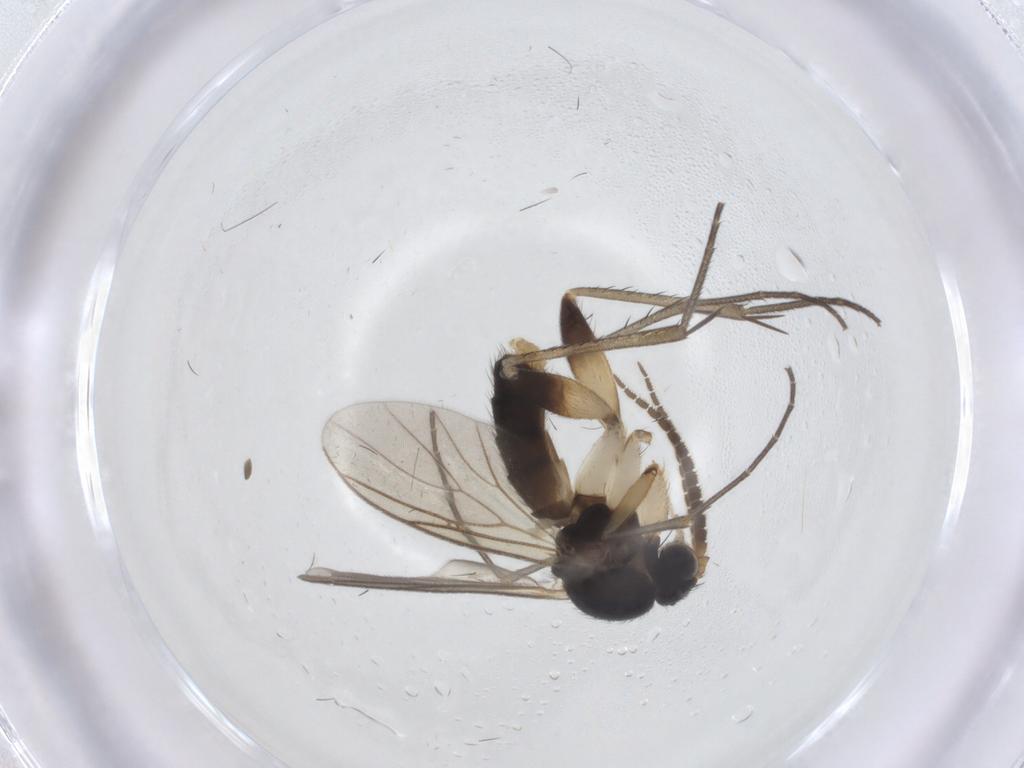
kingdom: Animalia
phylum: Arthropoda
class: Insecta
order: Diptera
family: Mycetophilidae
